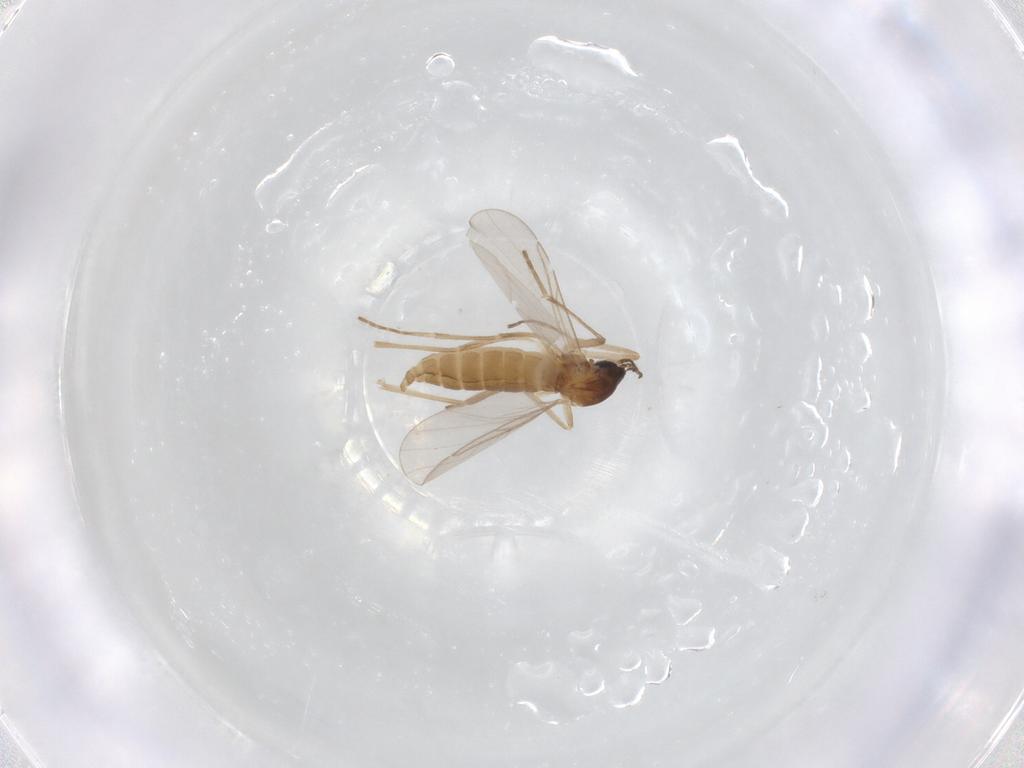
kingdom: Animalia
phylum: Arthropoda
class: Insecta
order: Diptera
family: Cecidomyiidae
